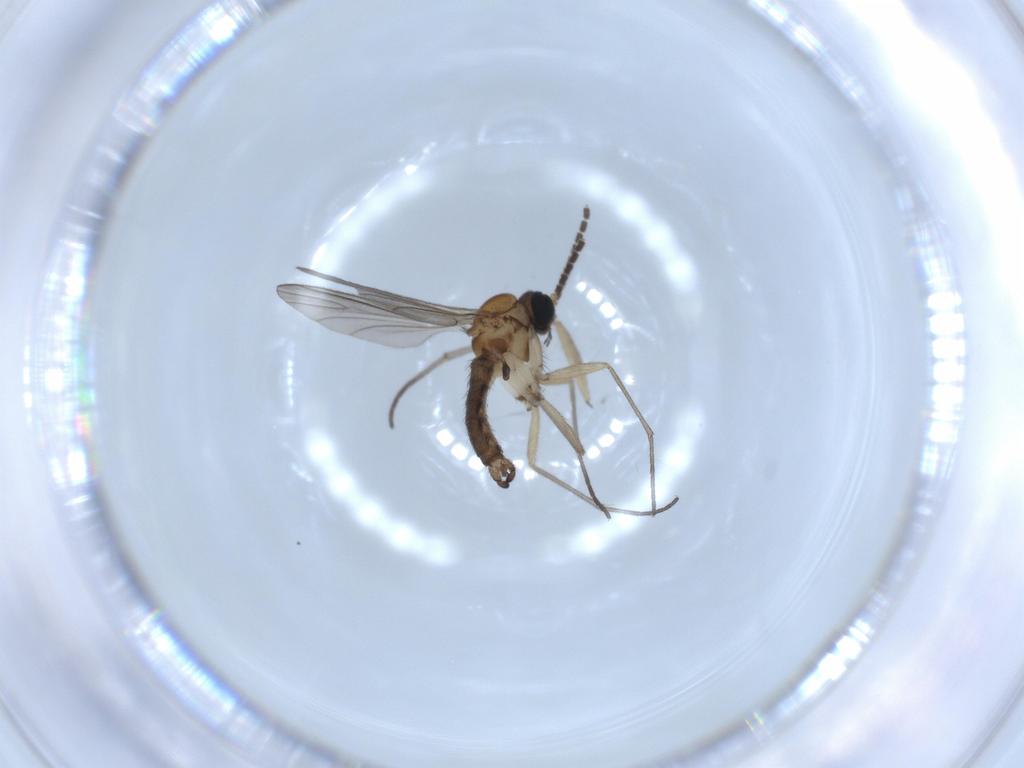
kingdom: Animalia
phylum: Arthropoda
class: Insecta
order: Diptera
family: Sciaridae
